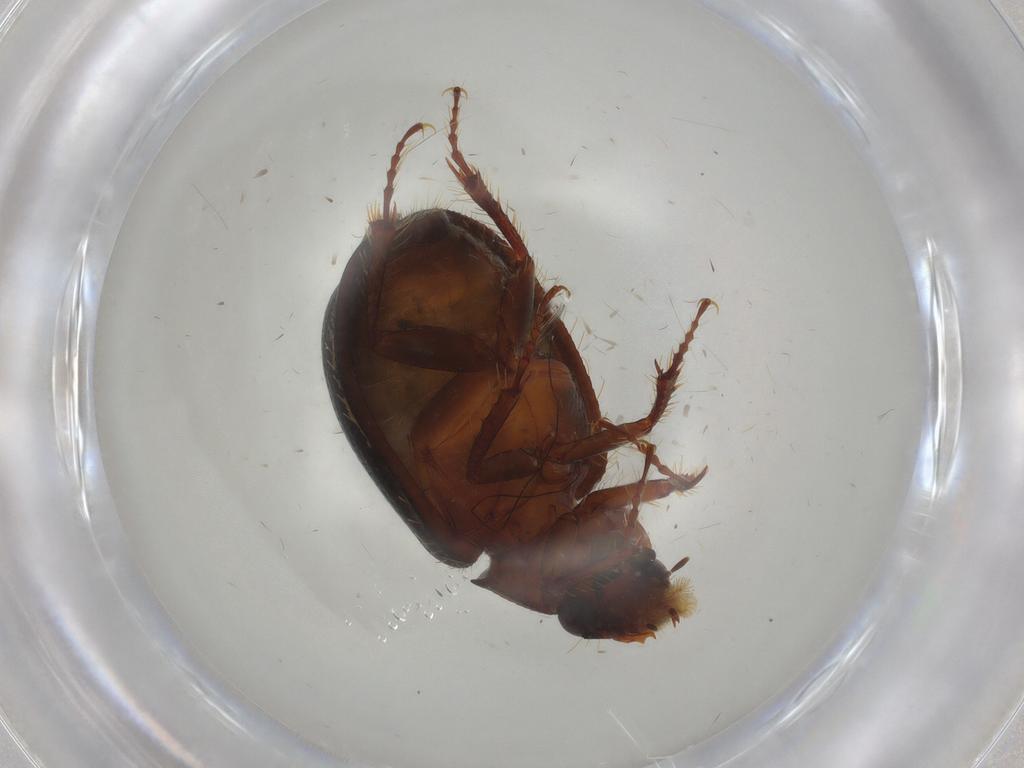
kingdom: Animalia
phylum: Arthropoda
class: Insecta
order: Coleoptera
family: Hybosoridae
